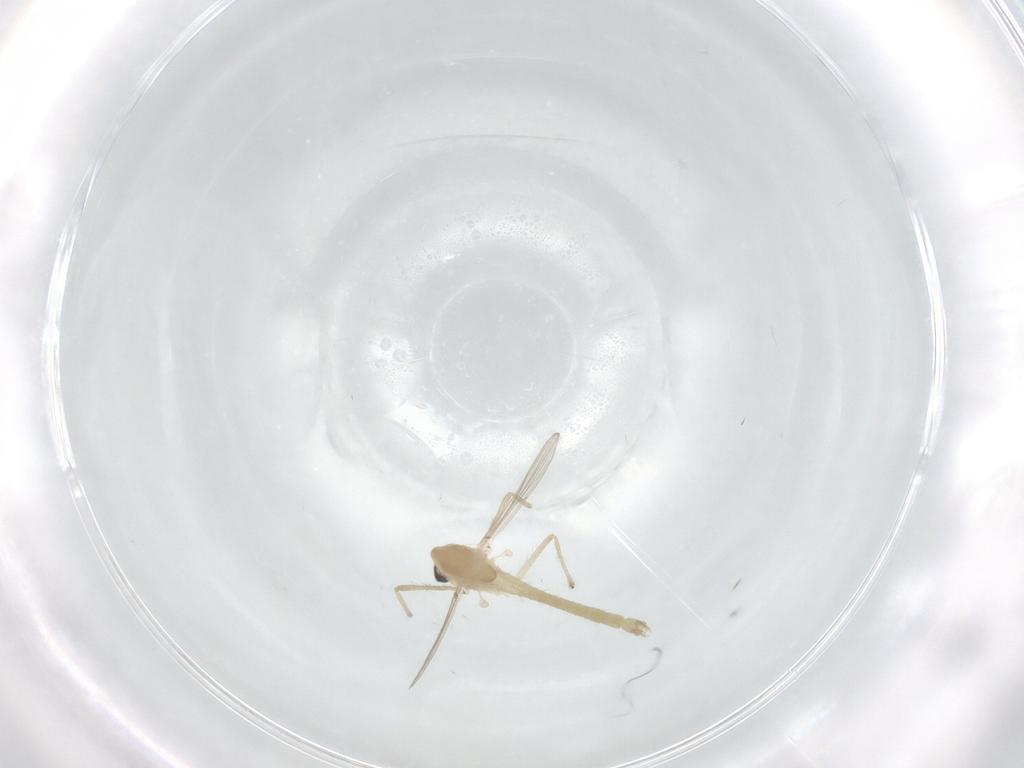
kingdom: Animalia
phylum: Arthropoda
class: Insecta
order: Diptera
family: Chironomidae
